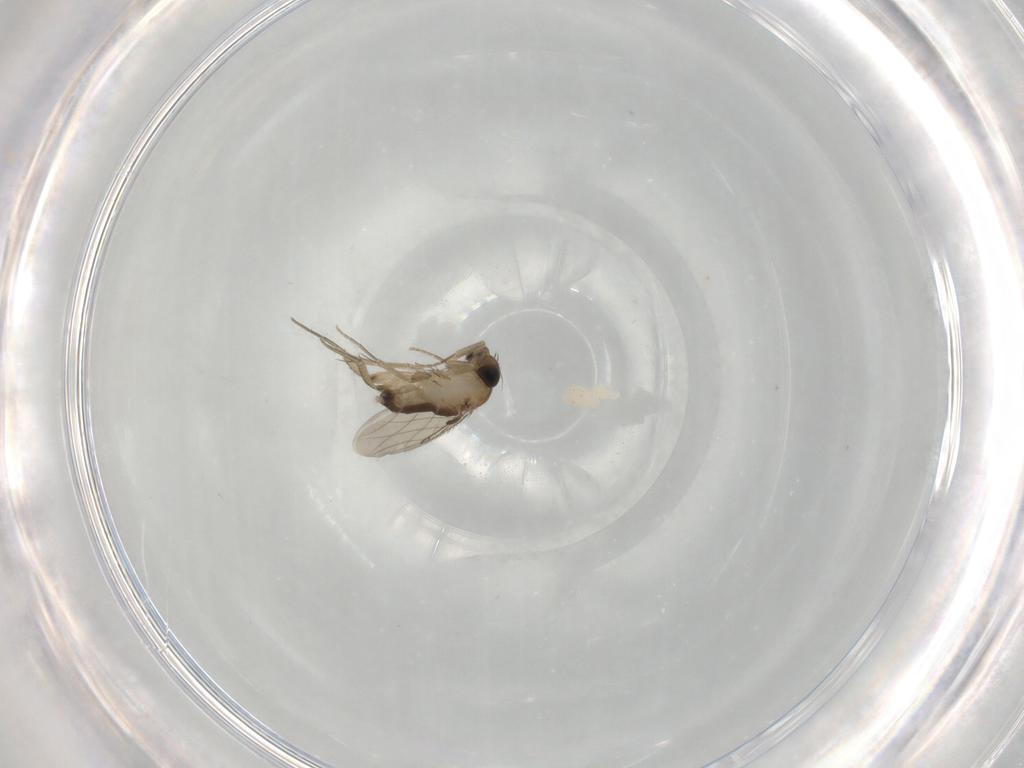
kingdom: Animalia
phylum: Arthropoda
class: Insecta
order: Diptera
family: Phoridae
